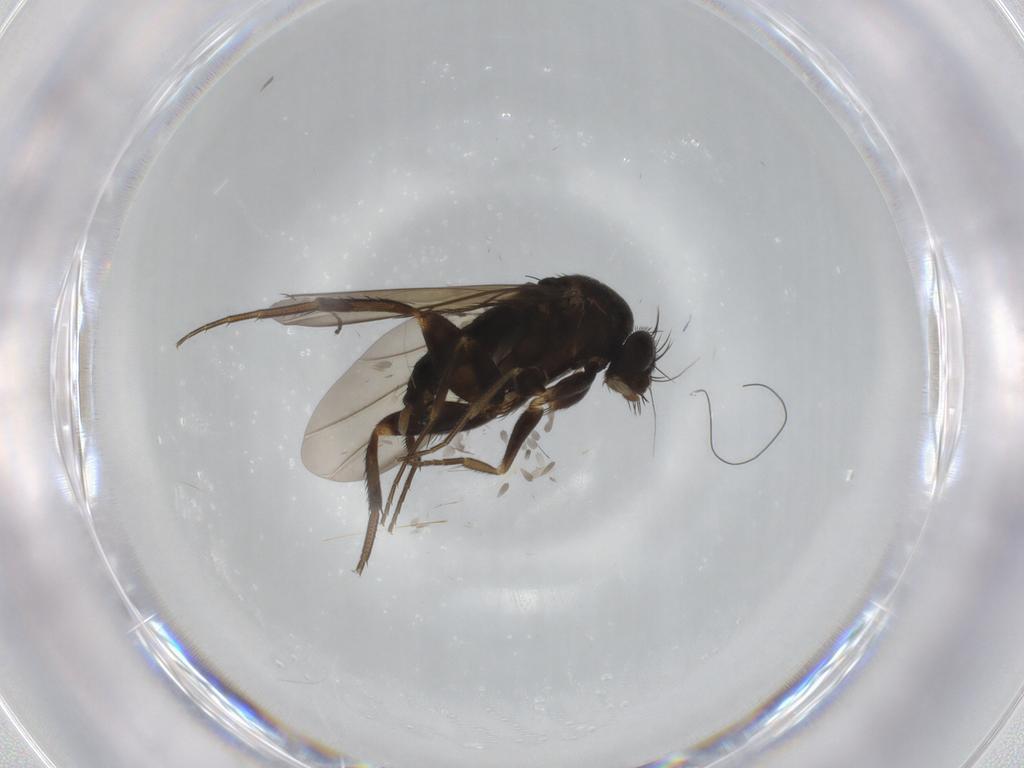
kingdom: Animalia
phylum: Arthropoda
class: Insecta
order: Diptera
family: Phoridae
